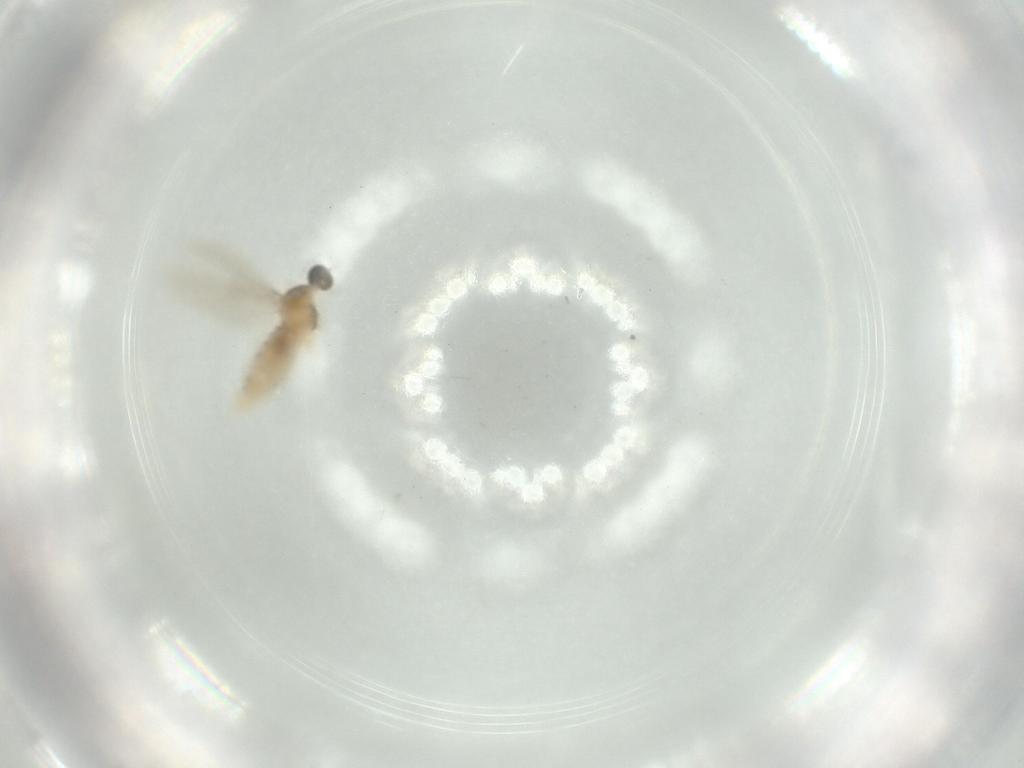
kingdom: Animalia
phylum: Arthropoda
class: Insecta
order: Diptera
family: Cecidomyiidae
